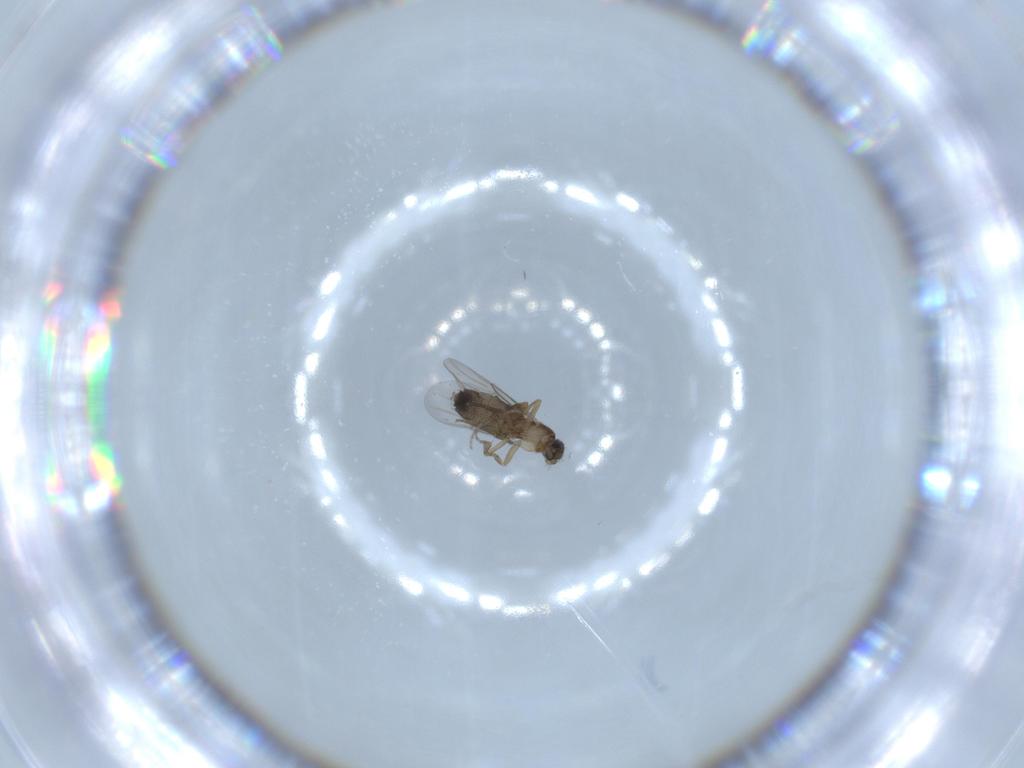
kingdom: Animalia
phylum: Arthropoda
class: Insecta
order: Diptera
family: Phoridae
